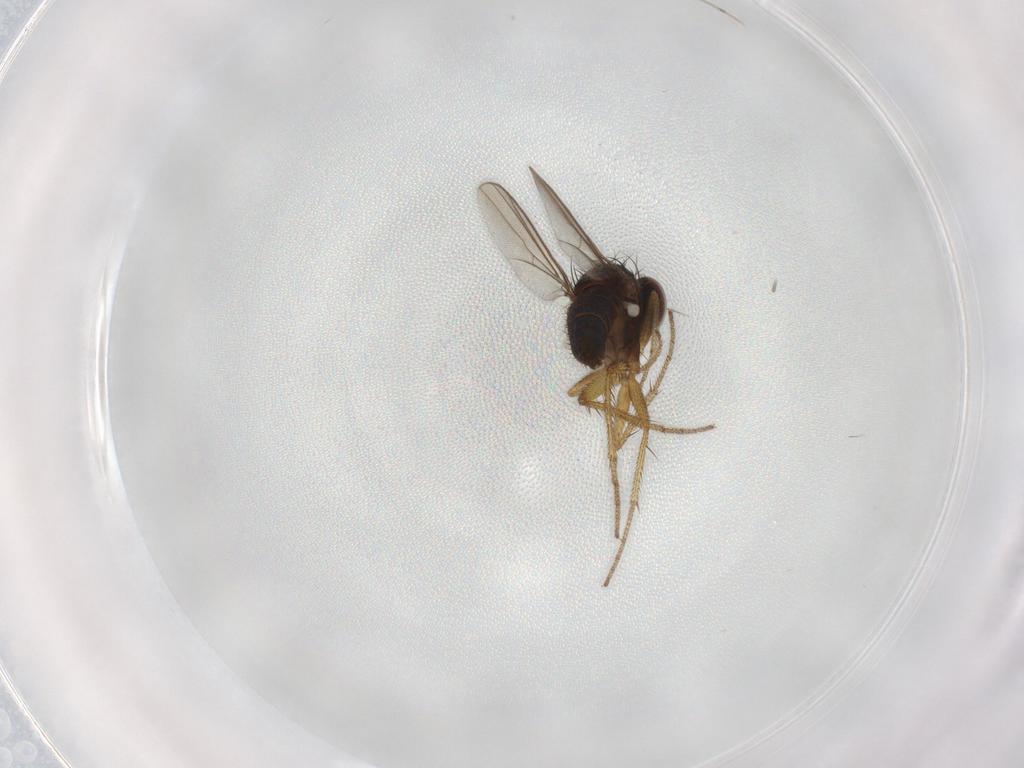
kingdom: Animalia
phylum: Arthropoda
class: Insecta
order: Diptera
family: Dolichopodidae
